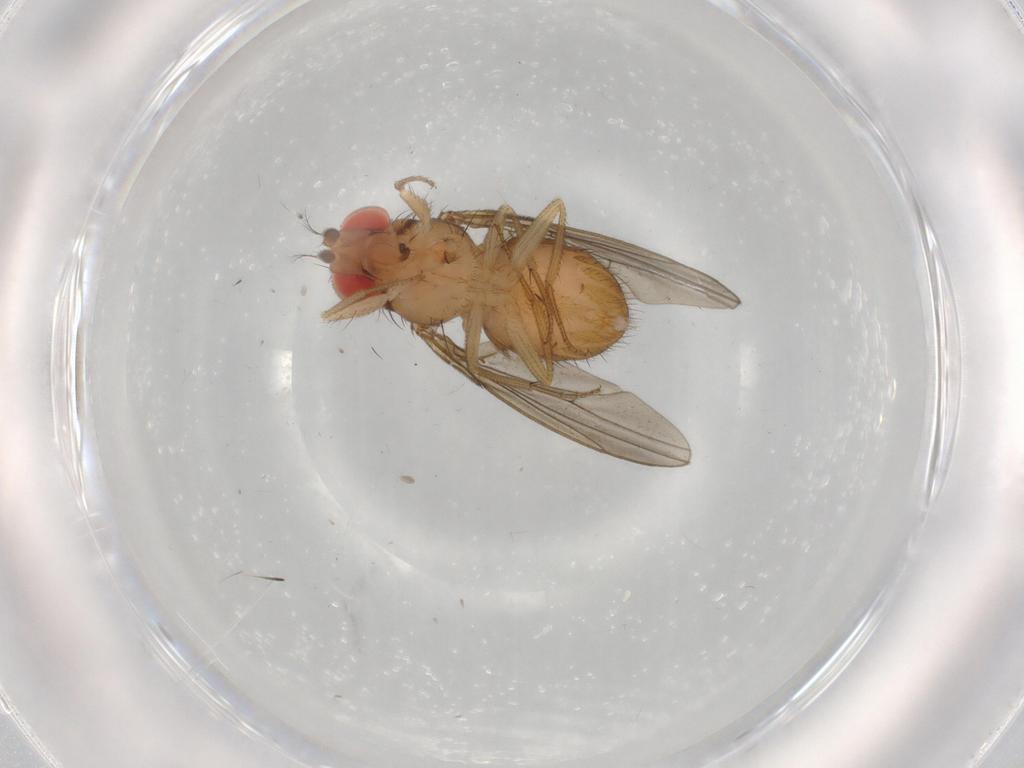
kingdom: Animalia
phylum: Arthropoda
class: Insecta
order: Diptera
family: Drosophilidae
